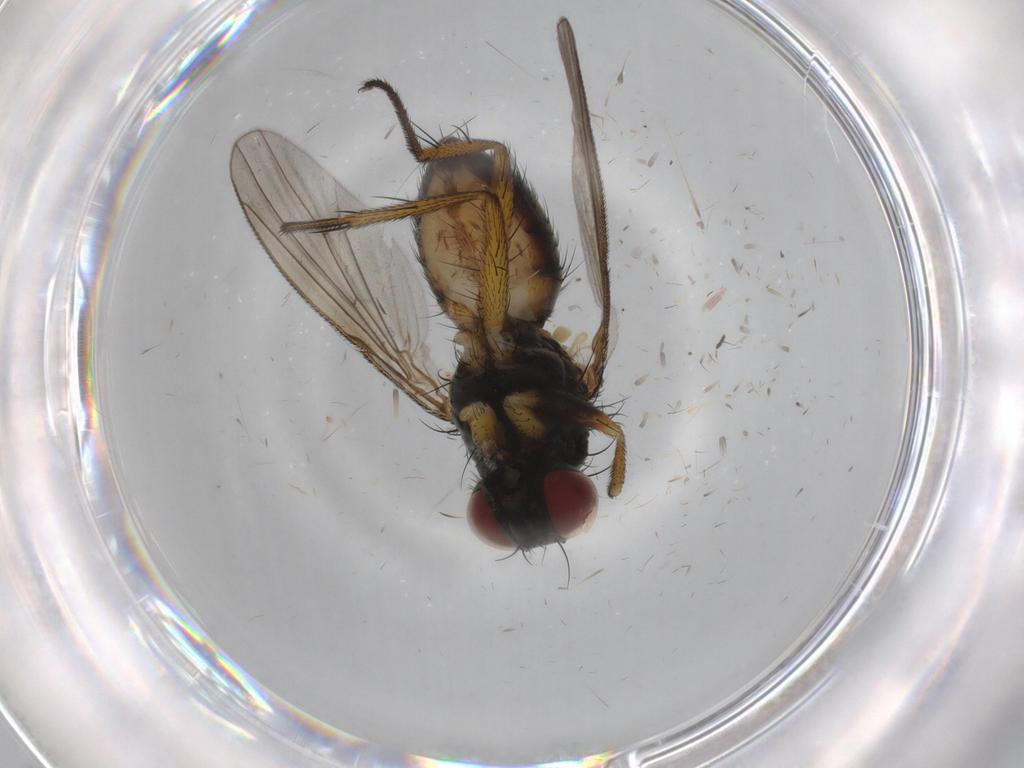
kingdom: Animalia
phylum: Arthropoda
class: Insecta
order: Diptera
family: Muscidae
